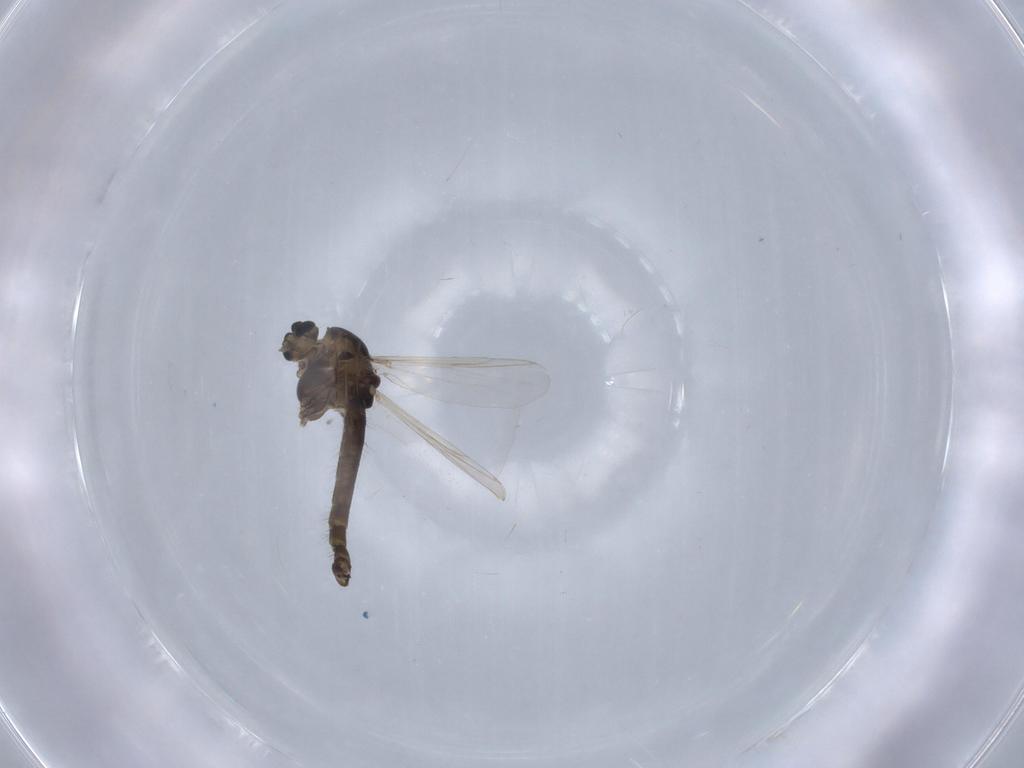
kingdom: Animalia
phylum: Arthropoda
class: Insecta
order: Diptera
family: Chironomidae
